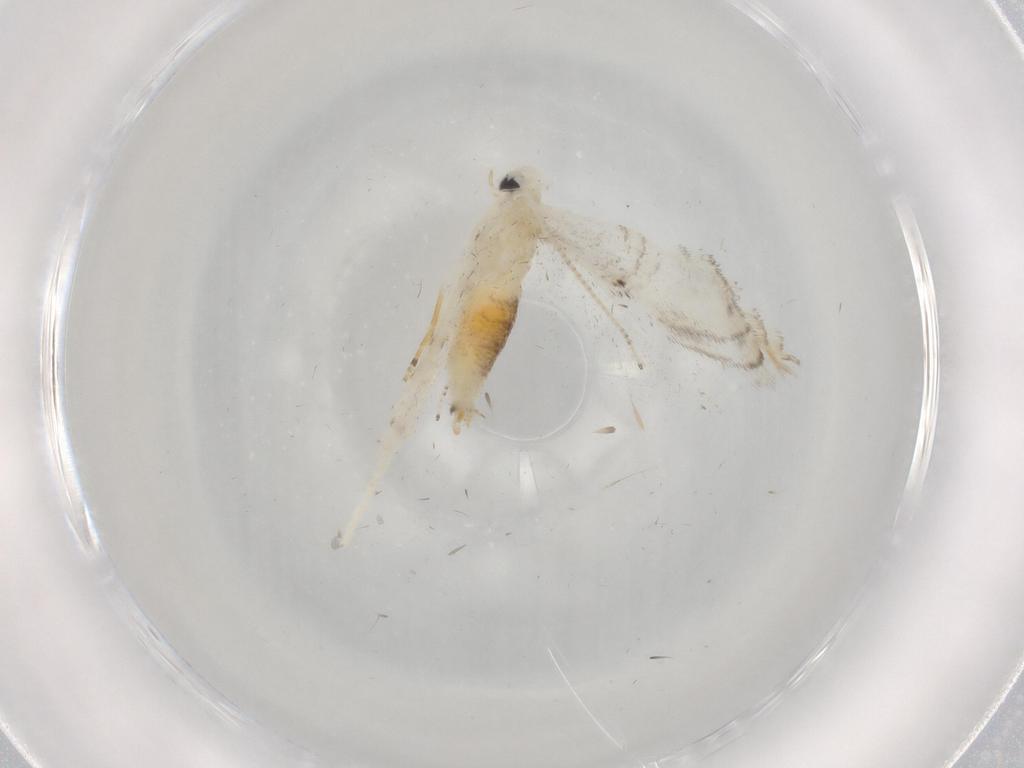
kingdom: Animalia
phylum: Arthropoda
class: Insecta
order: Lepidoptera
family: Gracillariidae
